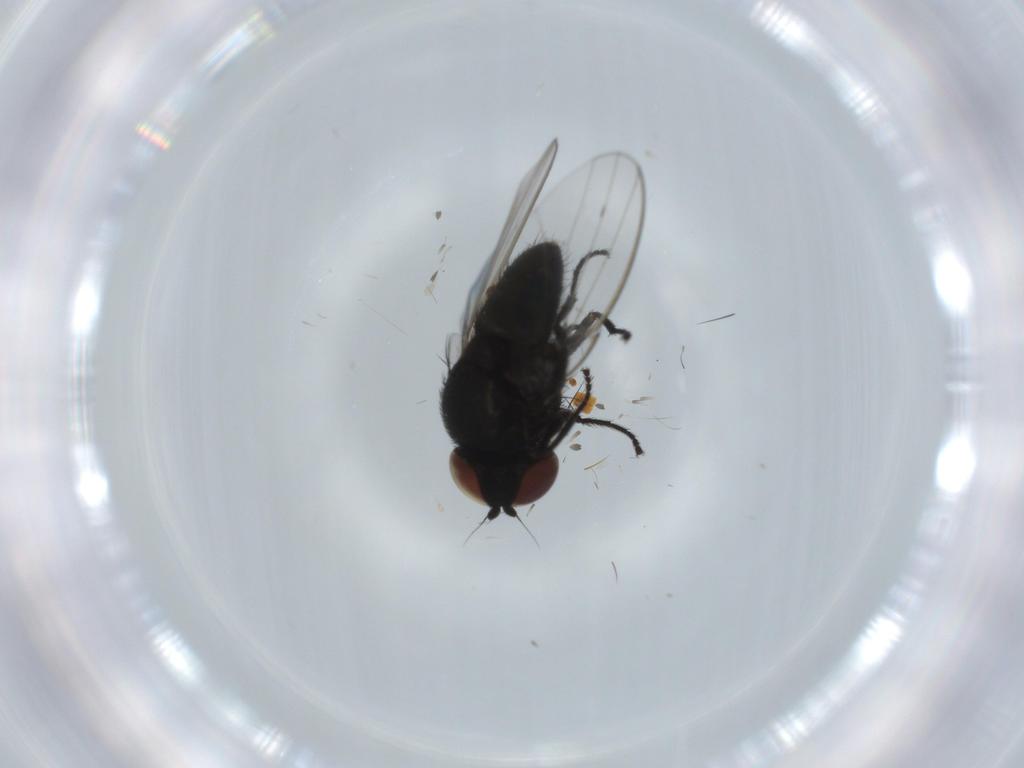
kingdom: Animalia
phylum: Arthropoda
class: Insecta
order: Diptera
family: Milichiidae
